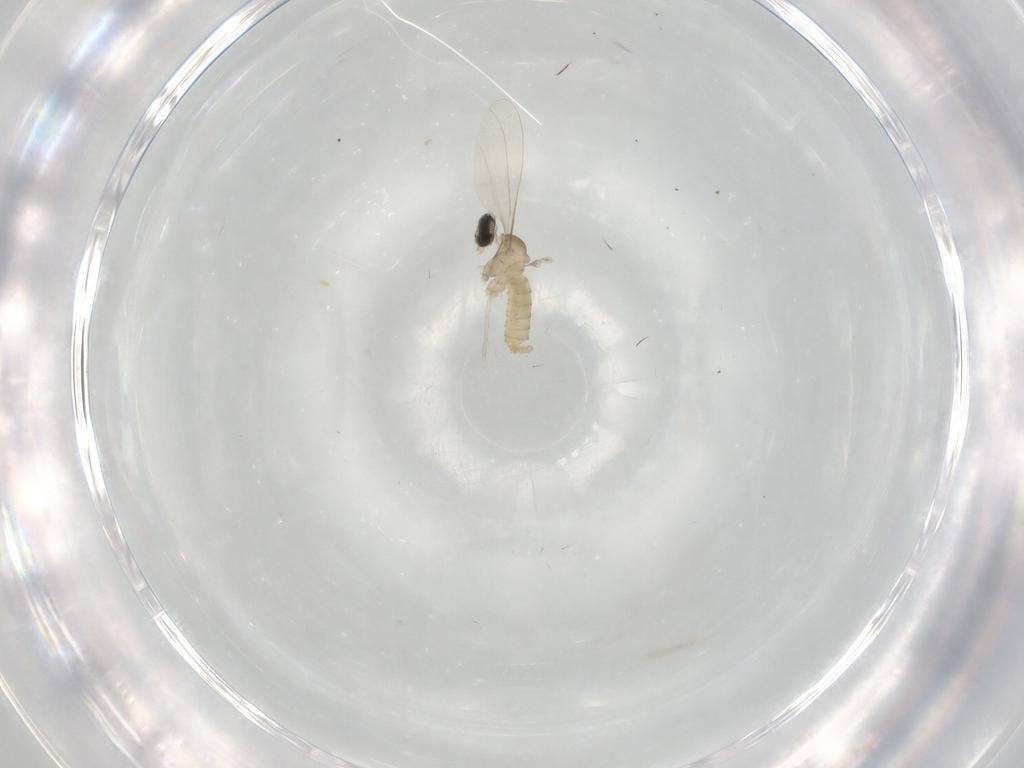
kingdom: Animalia
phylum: Arthropoda
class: Insecta
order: Diptera
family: Cecidomyiidae
